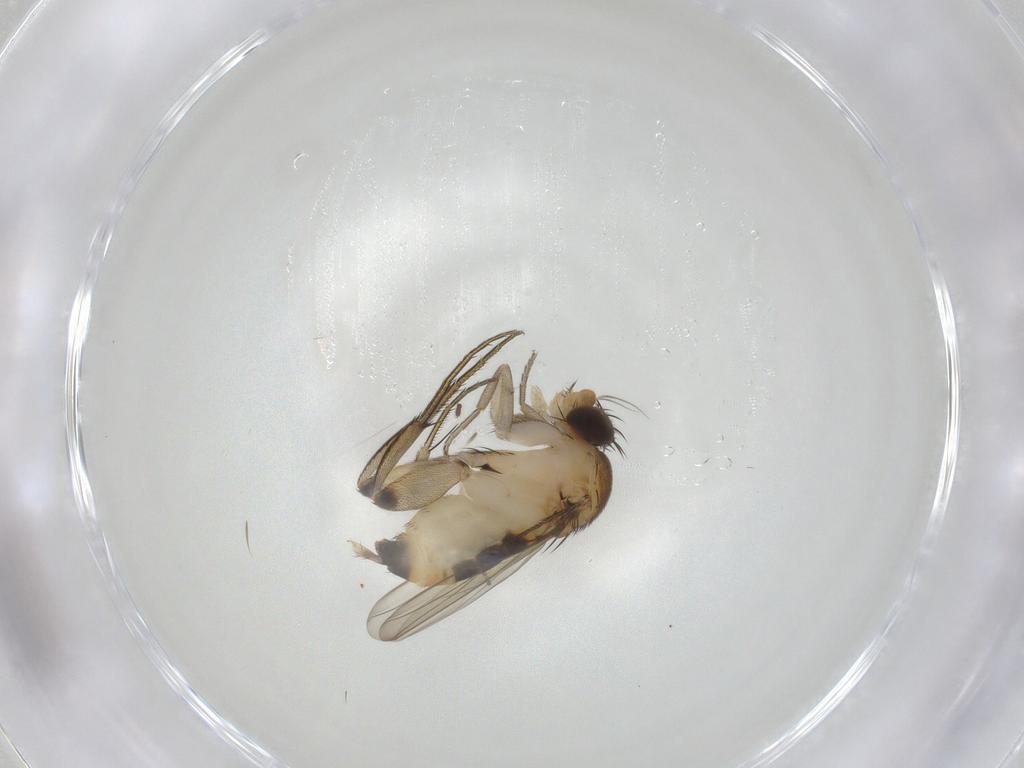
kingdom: Animalia
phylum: Arthropoda
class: Insecta
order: Diptera
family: Phoridae
